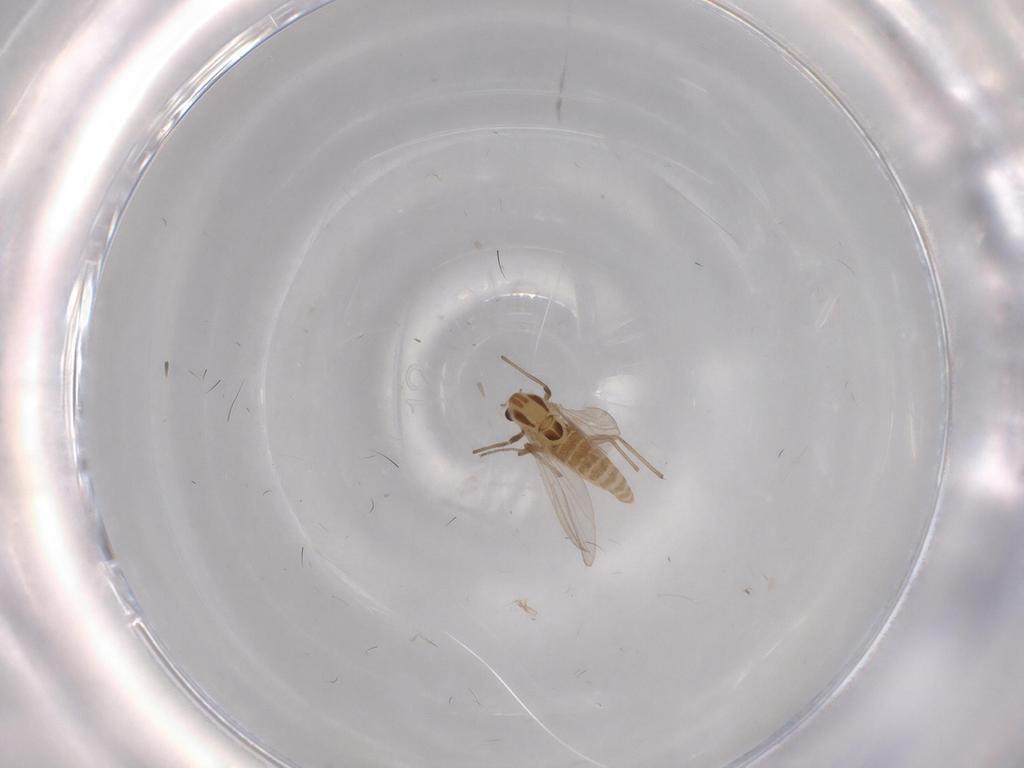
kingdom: Animalia
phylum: Arthropoda
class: Insecta
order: Diptera
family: Chironomidae
